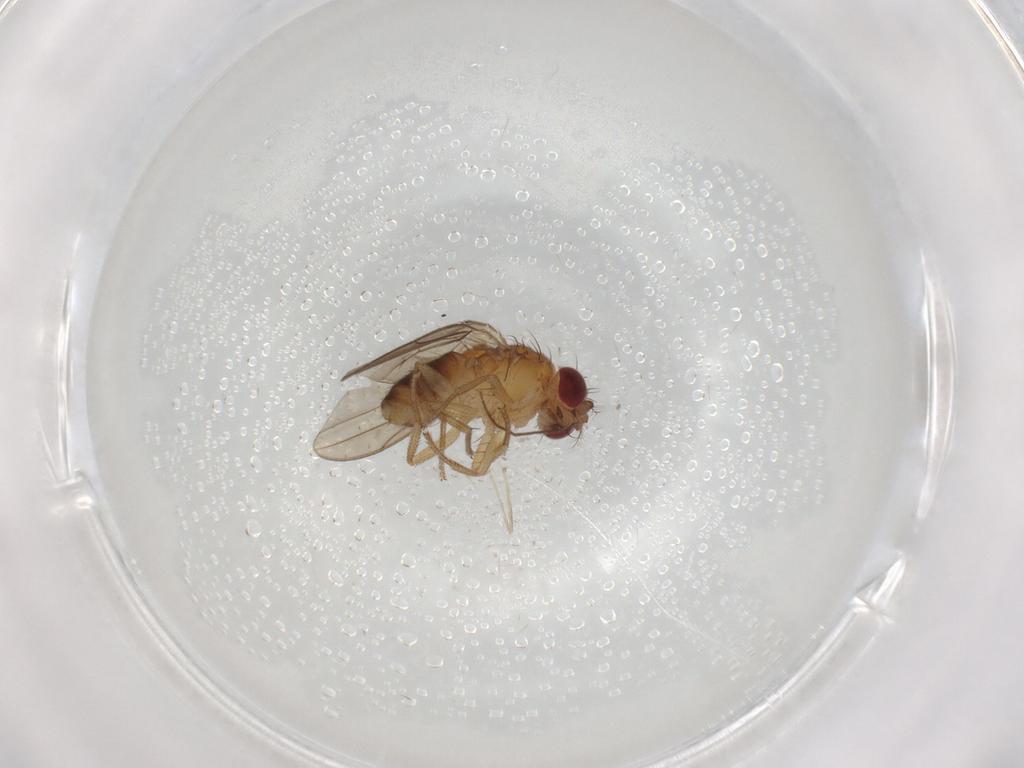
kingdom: Animalia
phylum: Arthropoda
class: Insecta
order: Diptera
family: Drosophilidae
